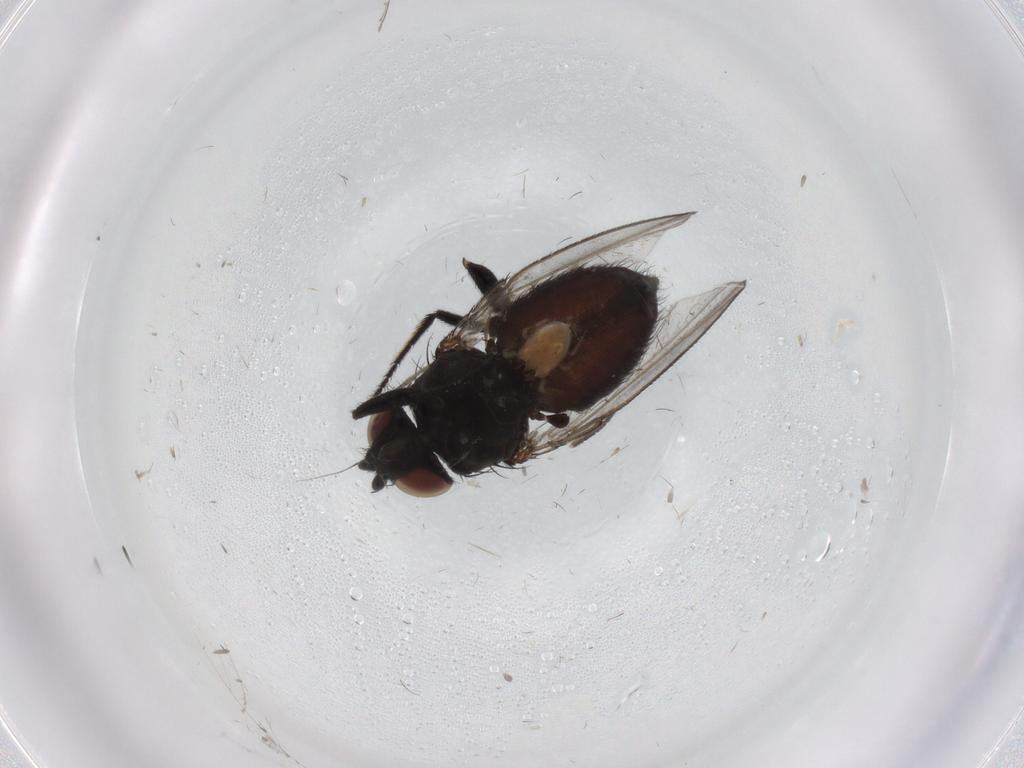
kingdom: Animalia
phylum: Arthropoda
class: Insecta
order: Diptera
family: Milichiidae
